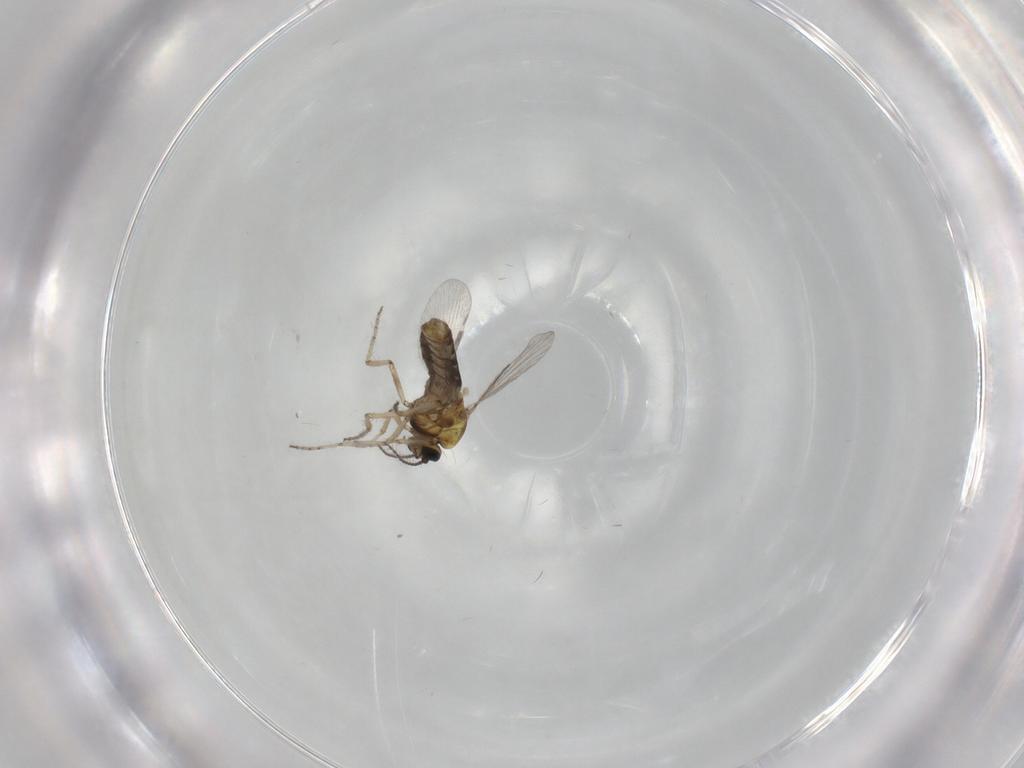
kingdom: Animalia
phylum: Arthropoda
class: Insecta
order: Diptera
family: Ceratopogonidae
